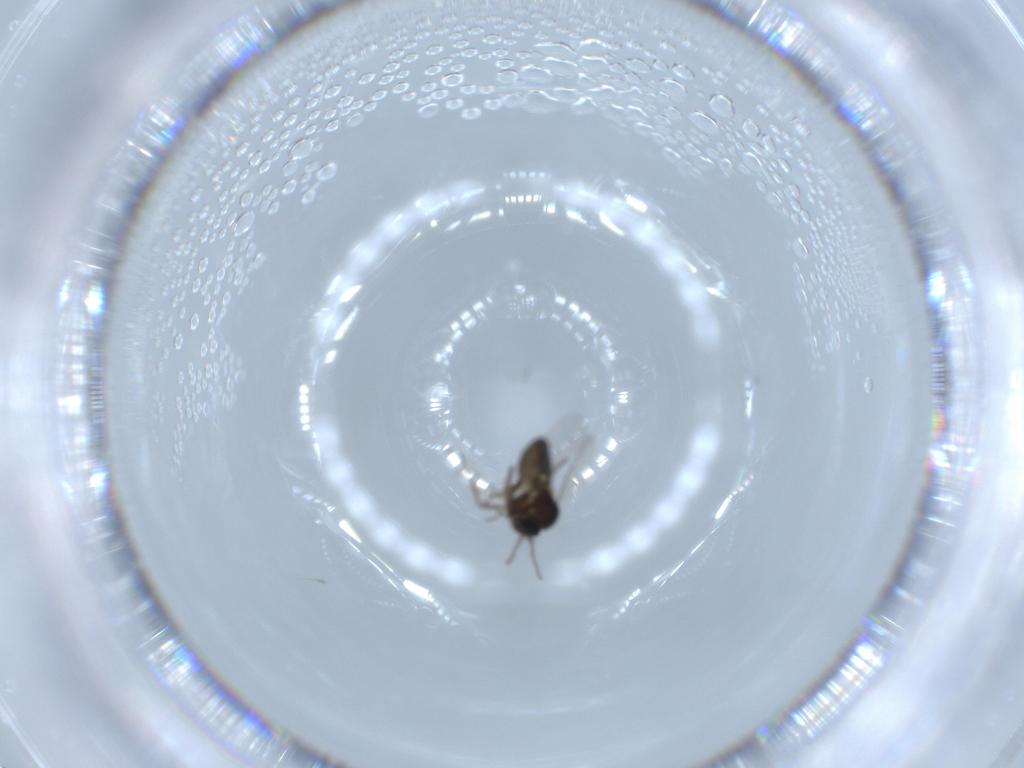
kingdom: Animalia
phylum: Arthropoda
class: Insecta
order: Diptera
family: Ceratopogonidae
